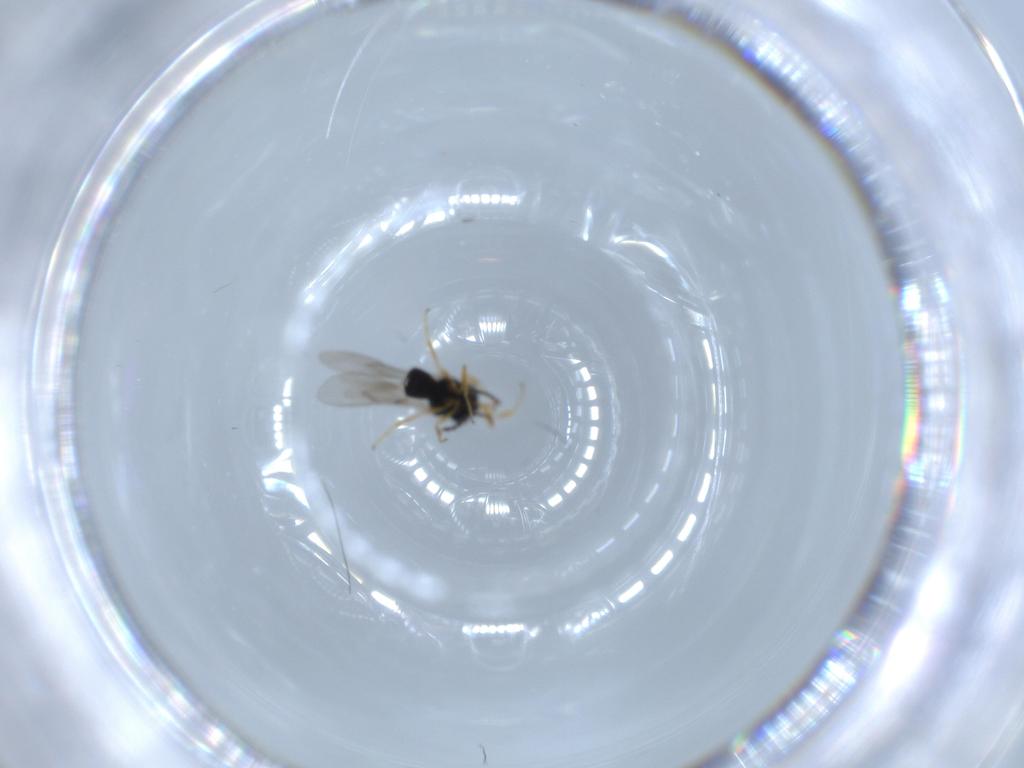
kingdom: Animalia
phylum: Arthropoda
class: Insecta
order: Hymenoptera
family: Scelionidae
